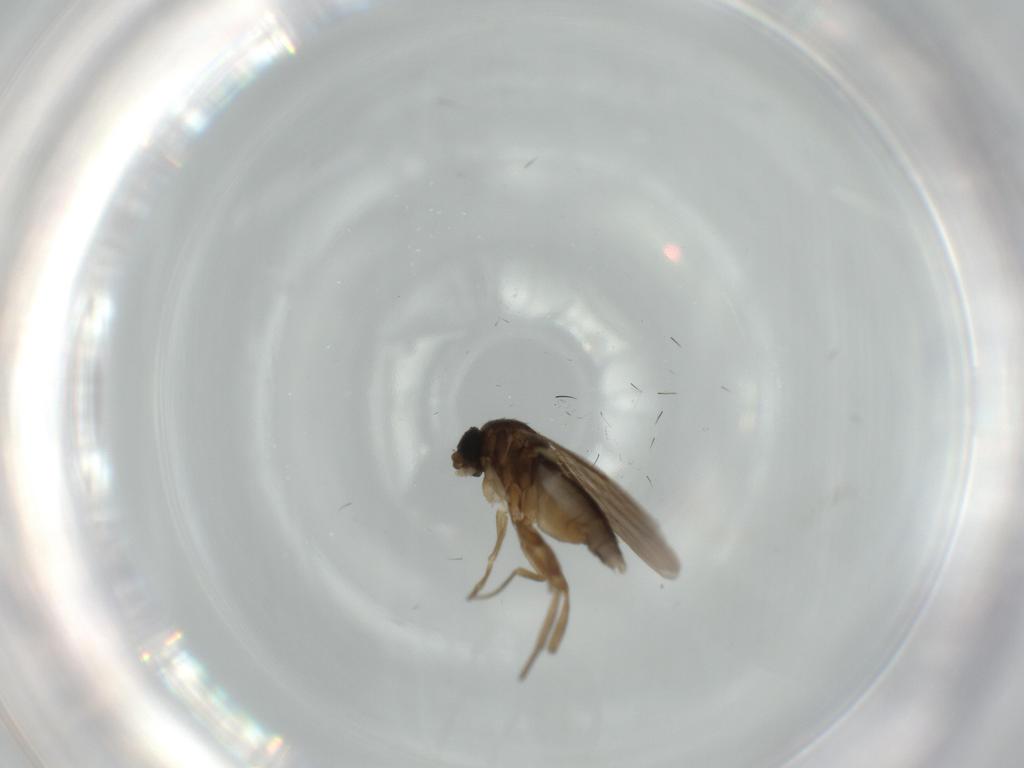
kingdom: Animalia
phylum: Arthropoda
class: Insecta
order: Diptera
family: Phoridae
